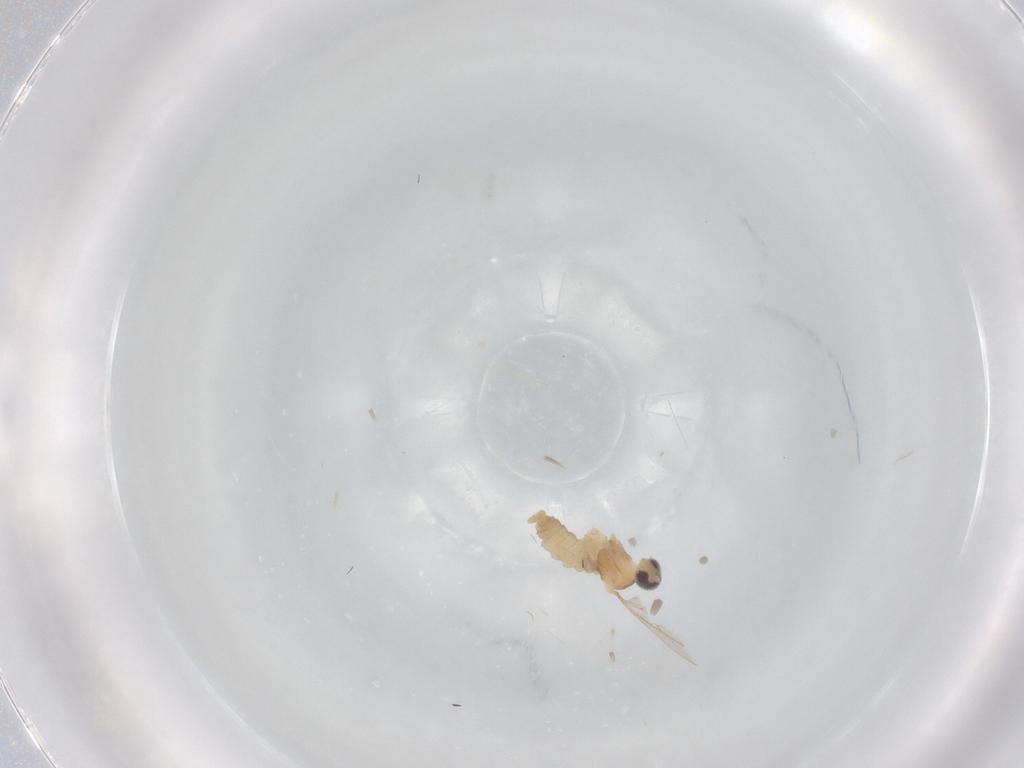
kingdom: Animalia
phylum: Arthropoda
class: Insecta
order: Diptera
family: Cecidomyiidae
